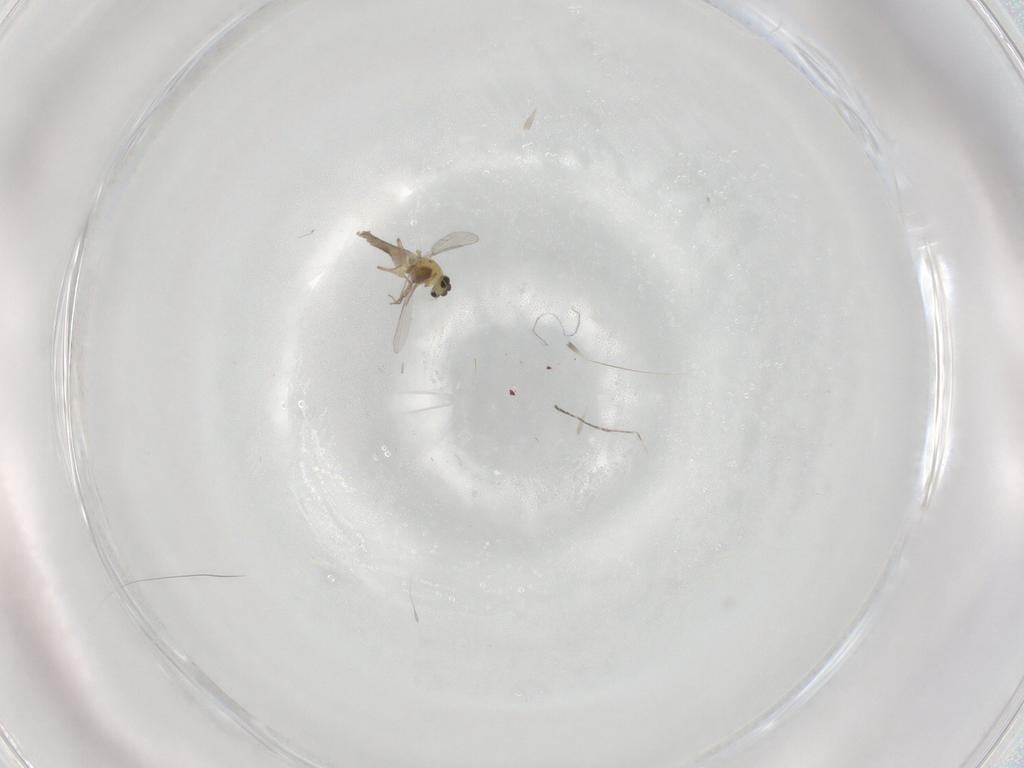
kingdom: Animalia
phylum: Arthropoda
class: Insecta
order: Diptera
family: Chironomidae
